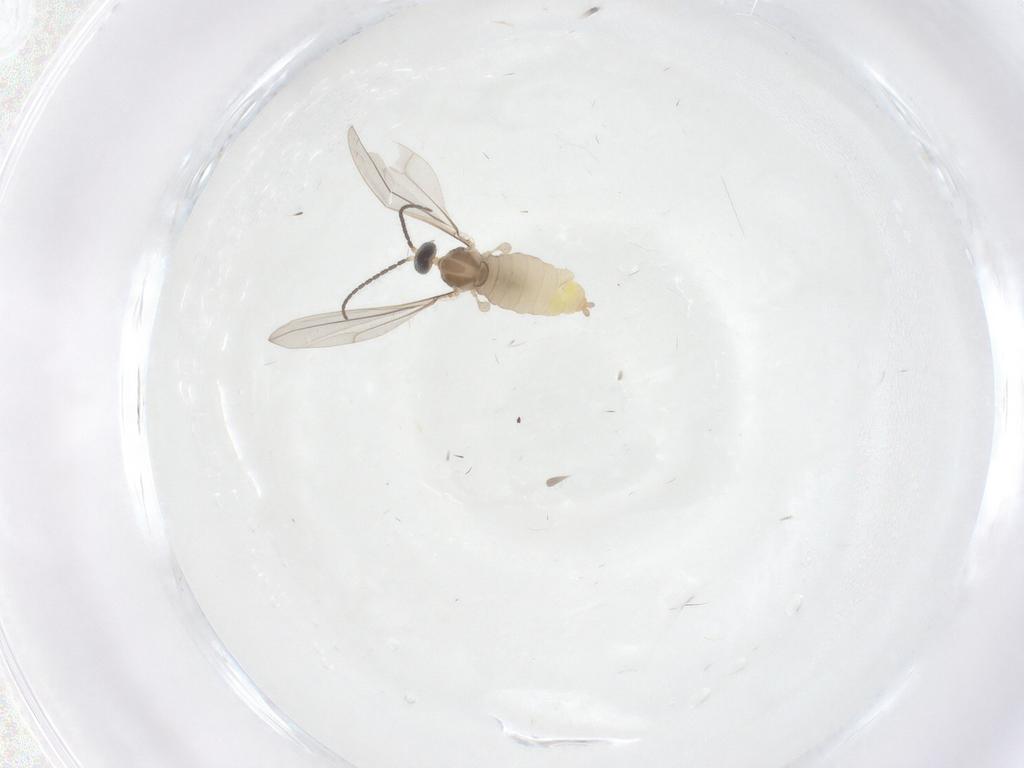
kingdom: Animalia
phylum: Arthropoda
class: Insecta
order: Diptera
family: Cecidomyiidae
